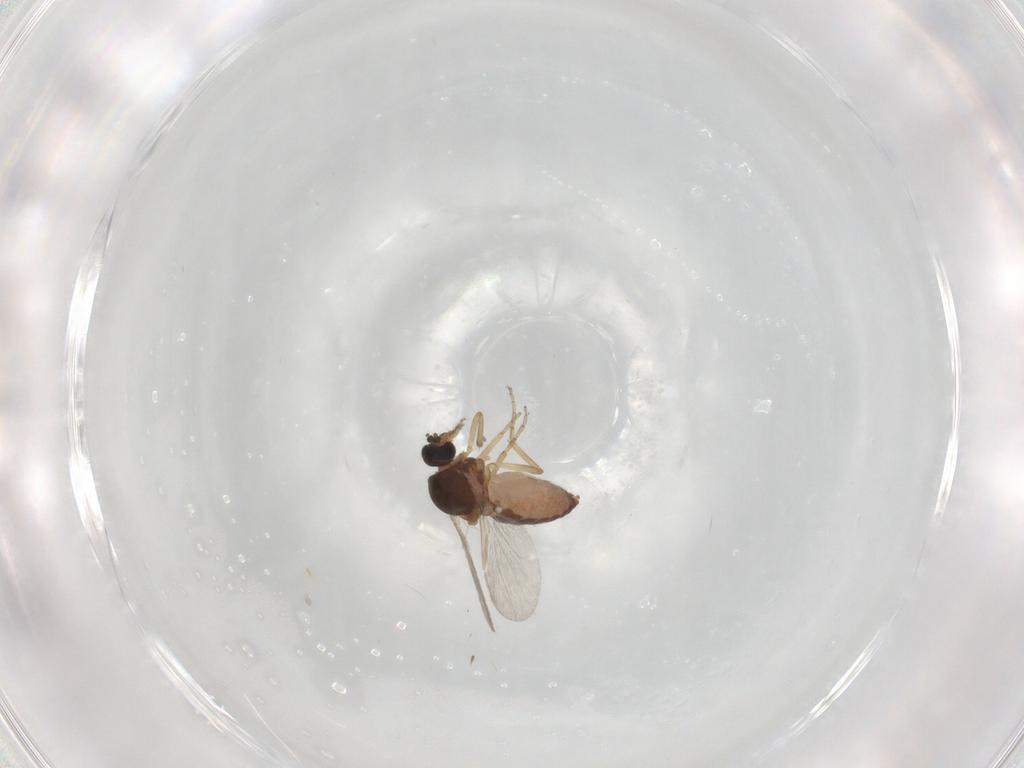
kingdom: Animalia
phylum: Arthropoda
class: Insecta
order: Diptera
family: Ceratopogonidae
